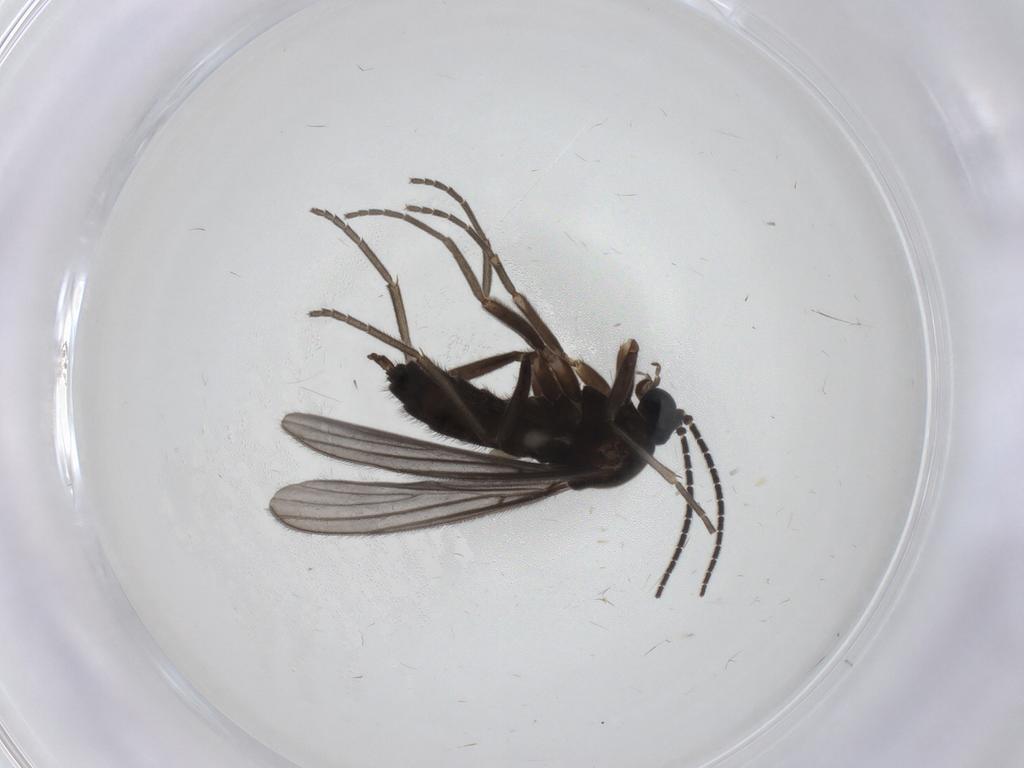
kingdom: Animalia
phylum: Arthropoda
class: Insecta
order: Diptera
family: Sciaridae
